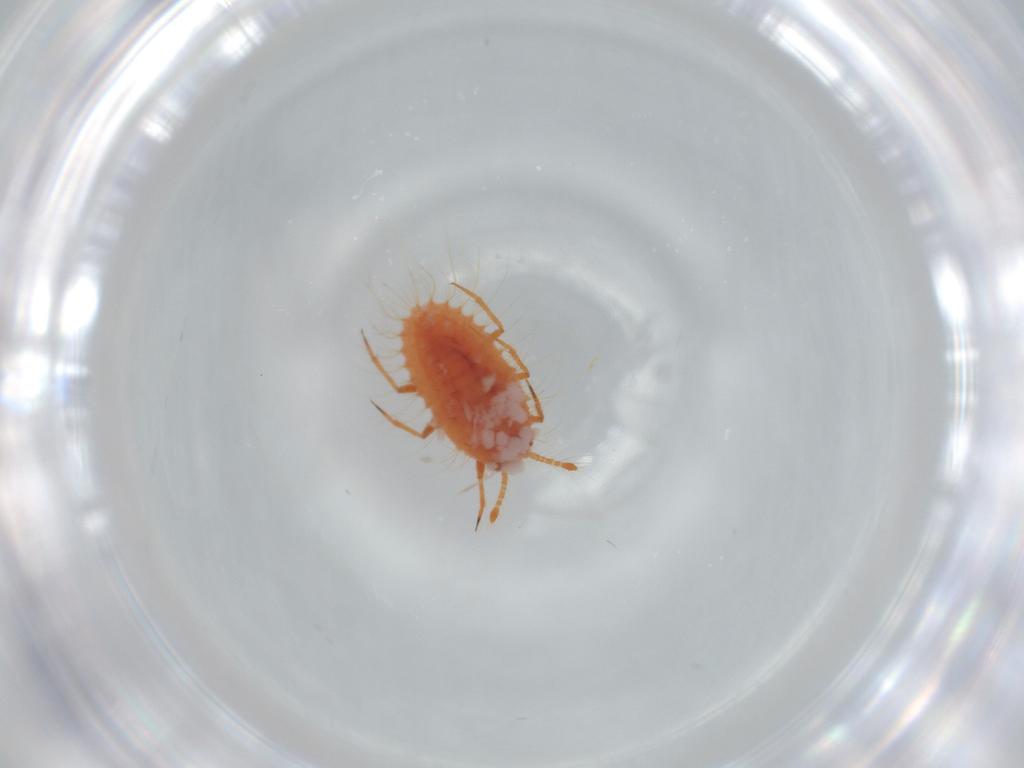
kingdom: Animalia
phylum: Arthropoda
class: Insecta
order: Hemiptera
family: Coccoidea_incertae_sedis
